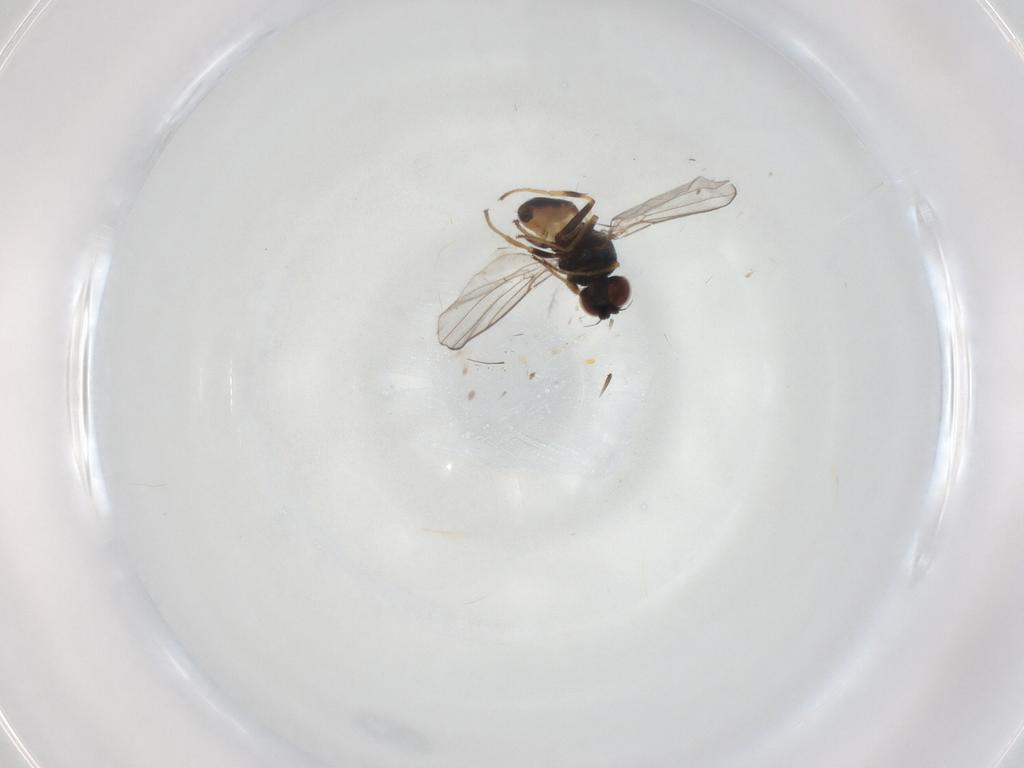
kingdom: Animalia
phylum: Arthropoda
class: Insecta
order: Diptera
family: Chloropidae
